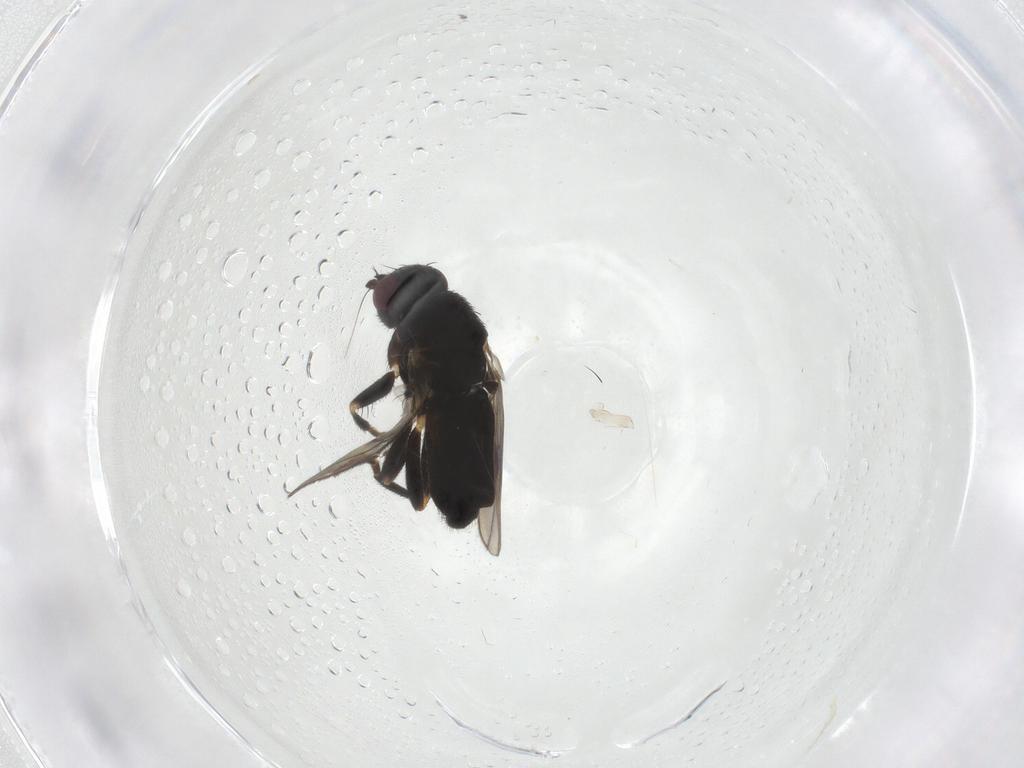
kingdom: Animalia
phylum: Arthropoda
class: Insecta
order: Diptera
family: Sphaeroceridae
